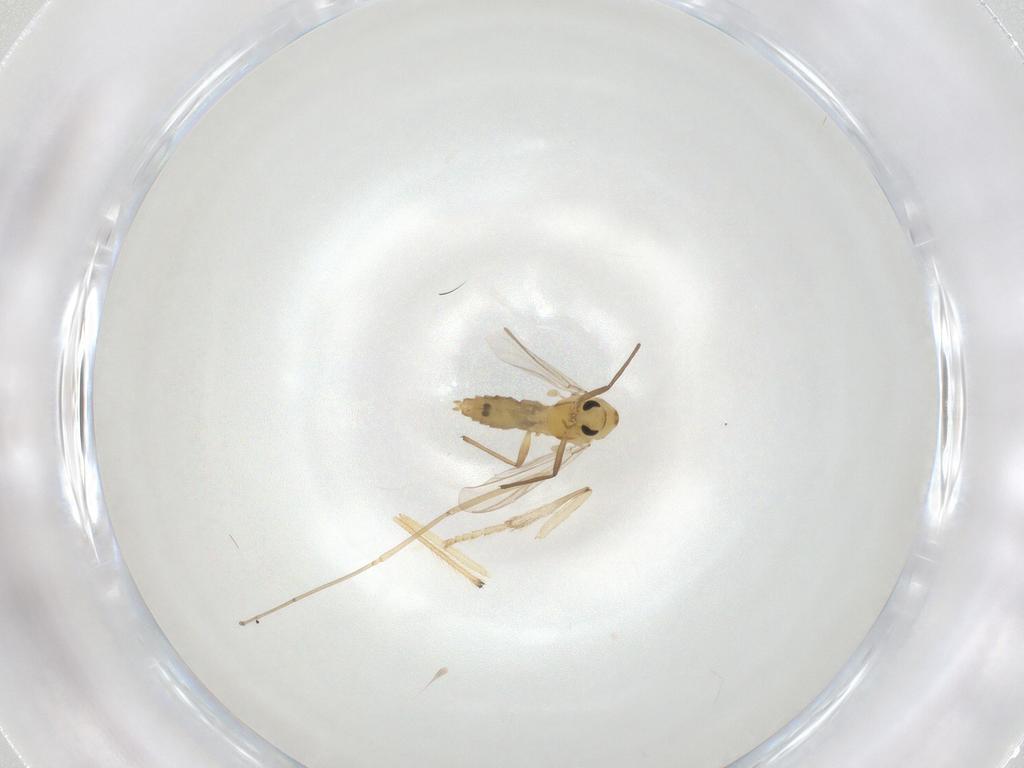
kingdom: Animalia
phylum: Arthropoda
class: Insecta
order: Diptera
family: Chironomidae
